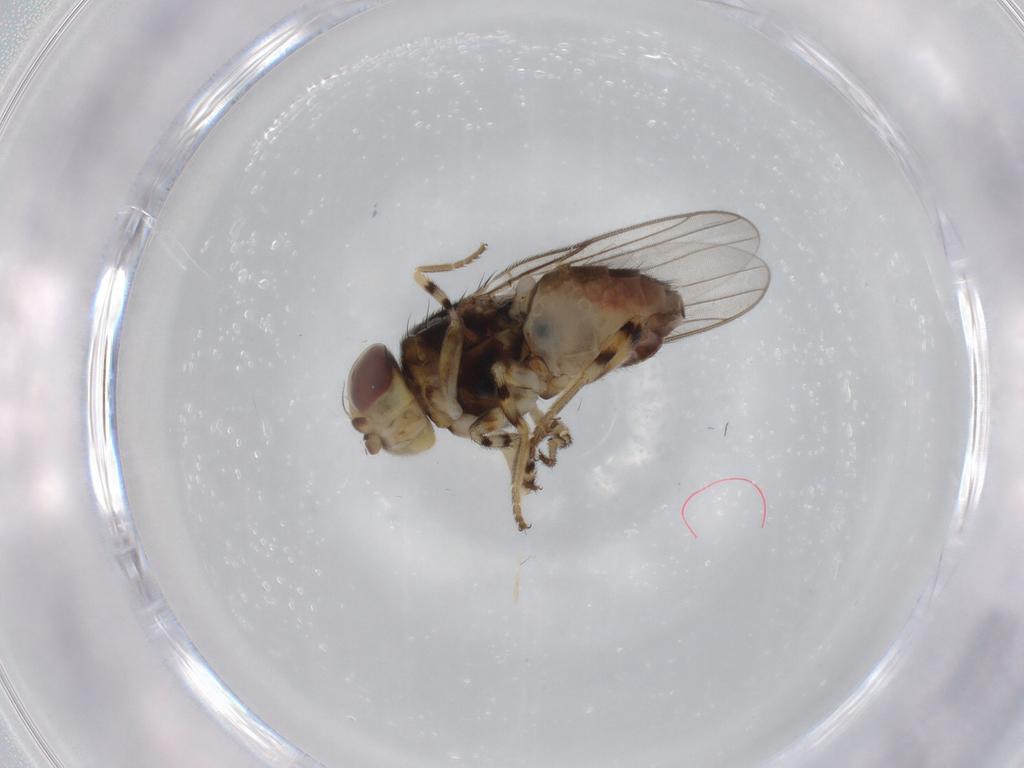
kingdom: Animalia
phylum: Arthropoda
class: Insecta
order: Diptera
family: Chloropidae
